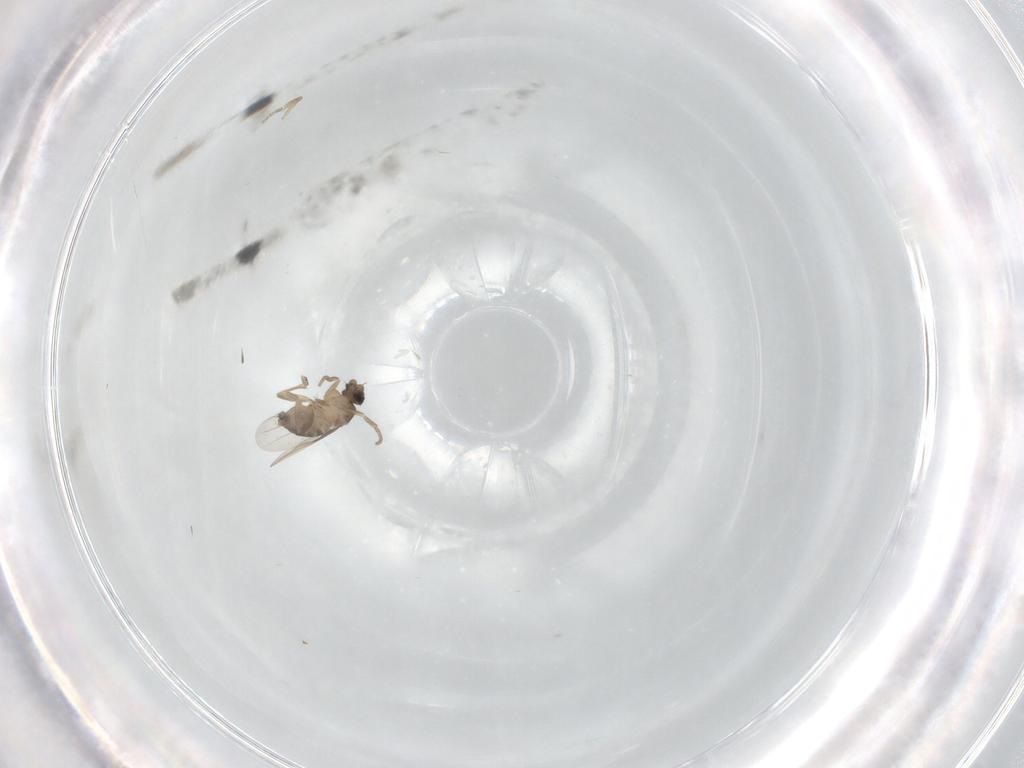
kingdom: Animalia
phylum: Arthropoda
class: Insecta
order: Diptera
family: Phoridae
